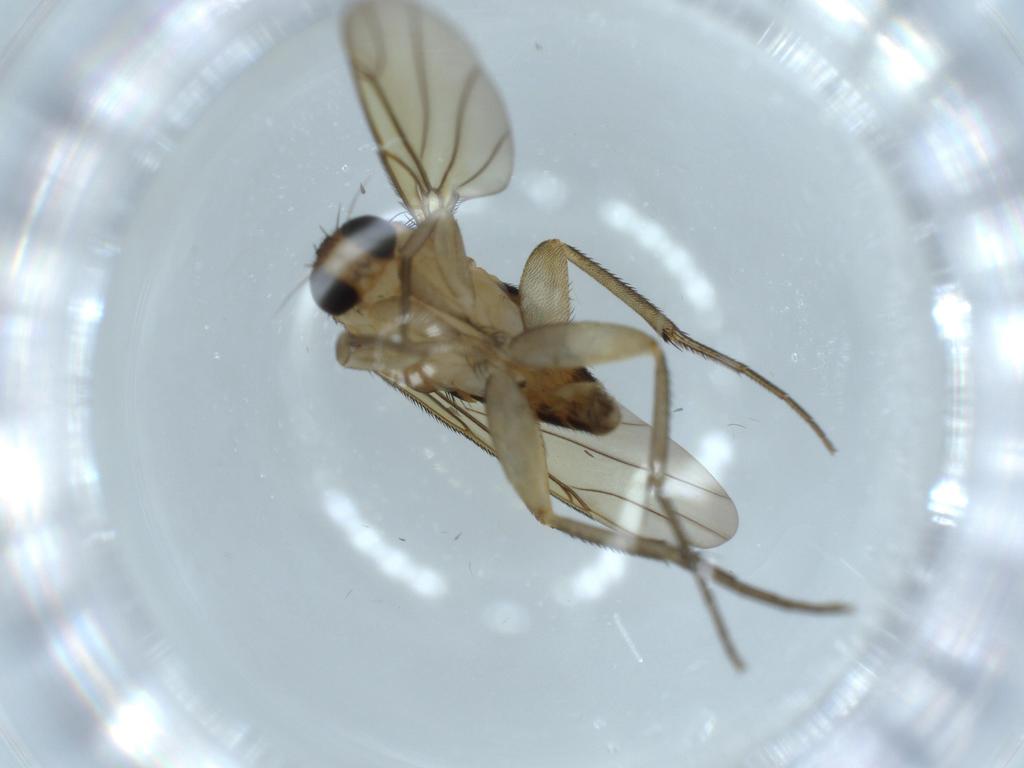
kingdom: Animalia
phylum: Arthropoda
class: Insecta
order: Diptera
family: Phoridae
